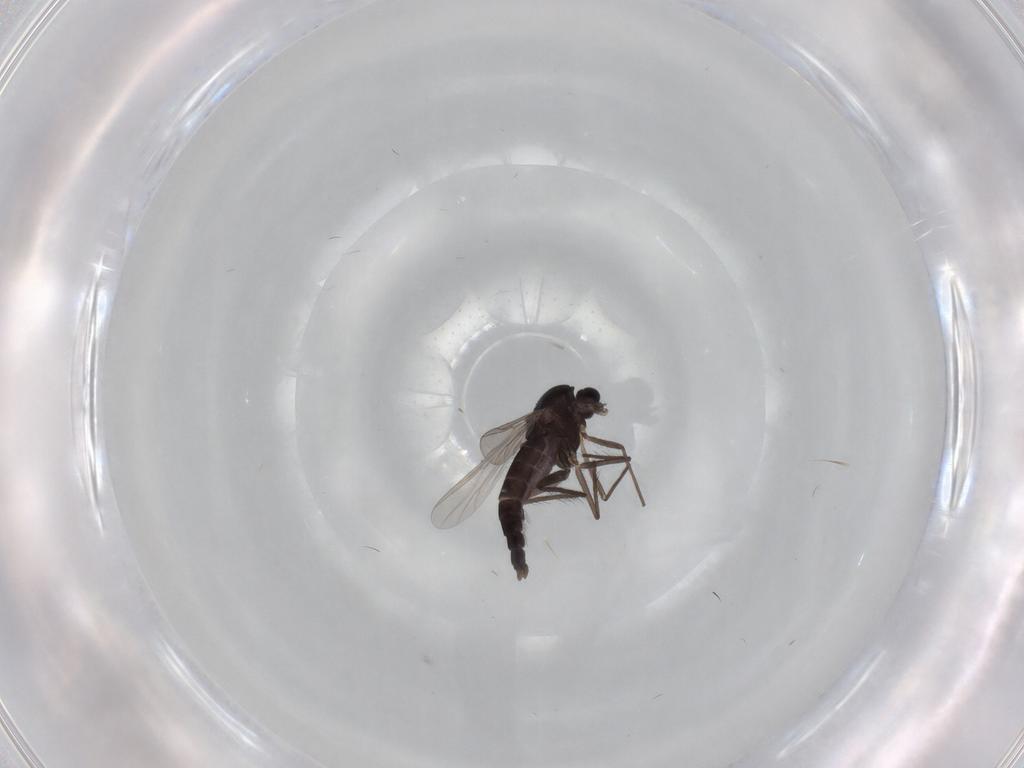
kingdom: Animalia
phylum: Arthropoda
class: Insecta
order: Diptera
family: Chironomidae
